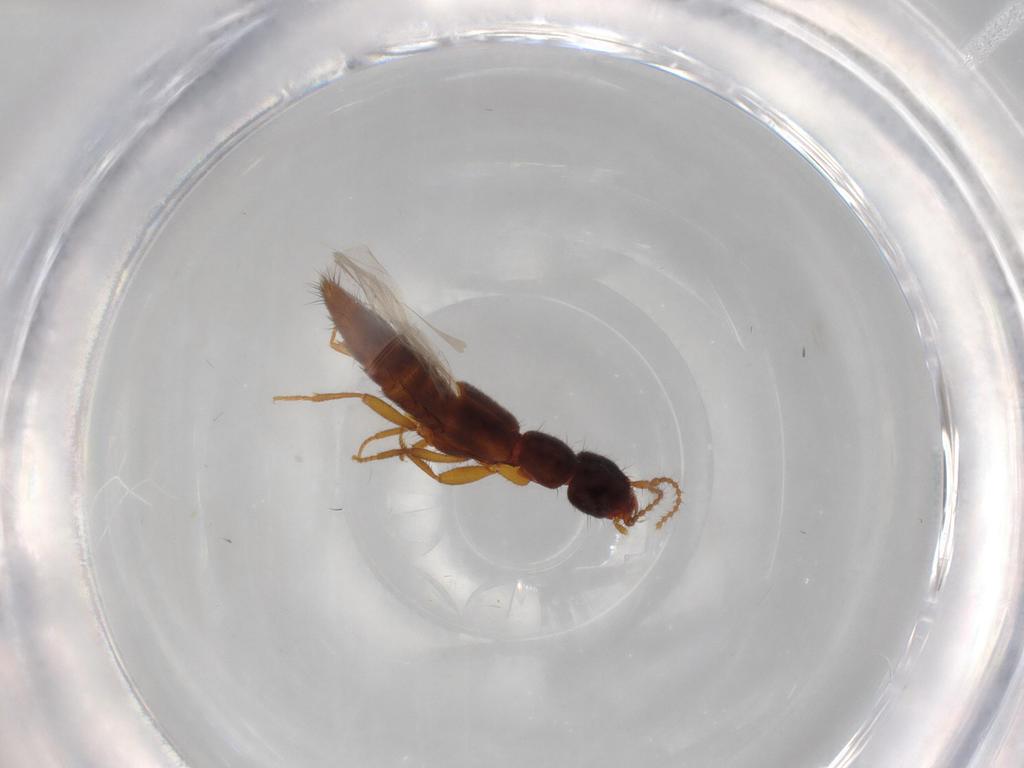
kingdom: Animalia
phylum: Arthropoda
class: Insecta
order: Coleoptera
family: Staphylinidae
